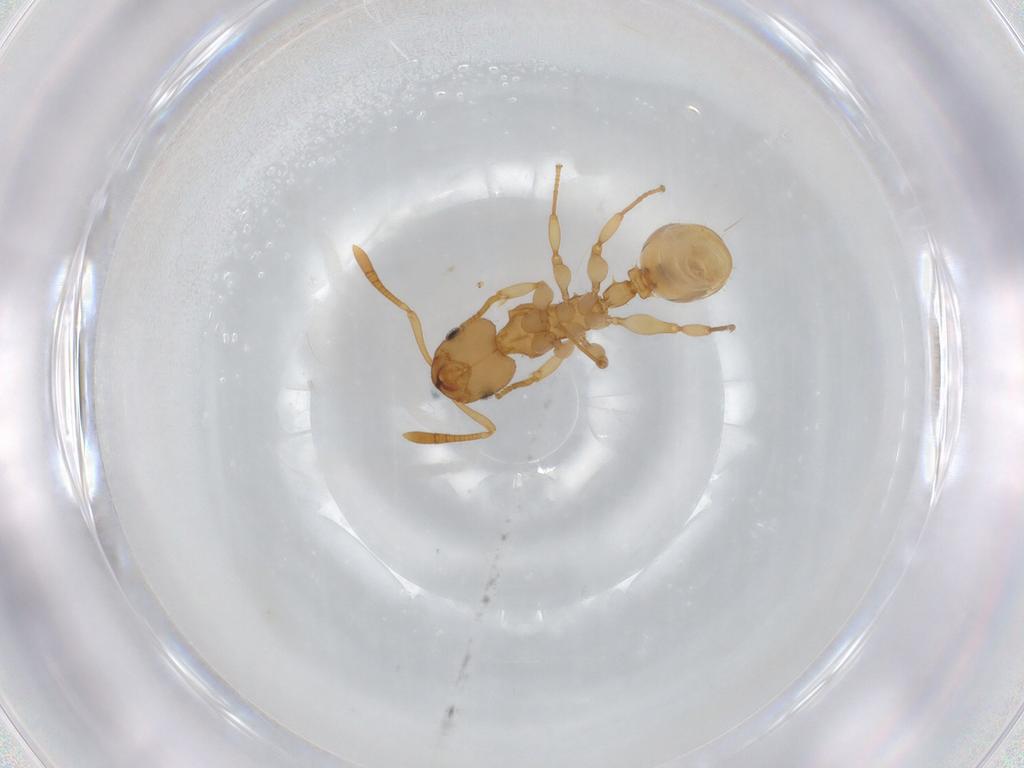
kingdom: Animalia
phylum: Arthropoda
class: Insecta
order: Hymenoptera
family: Formicidae
